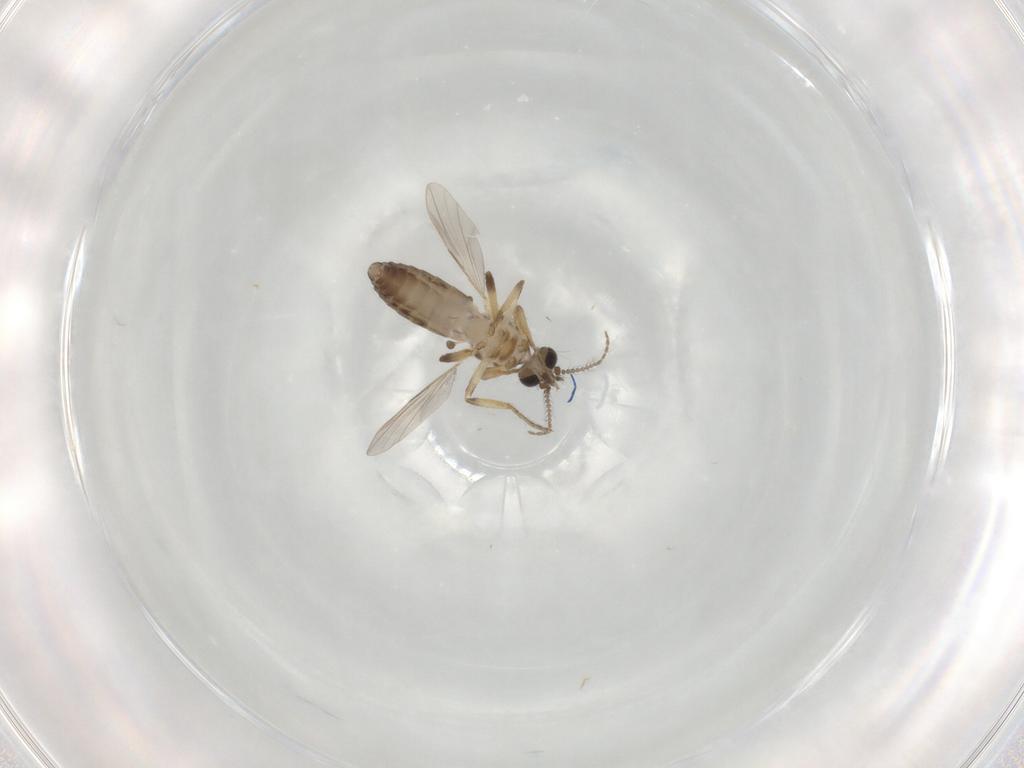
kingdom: Animalia
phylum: Arthropoda
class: Insecta
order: Diptera
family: Ceratopogonidae
